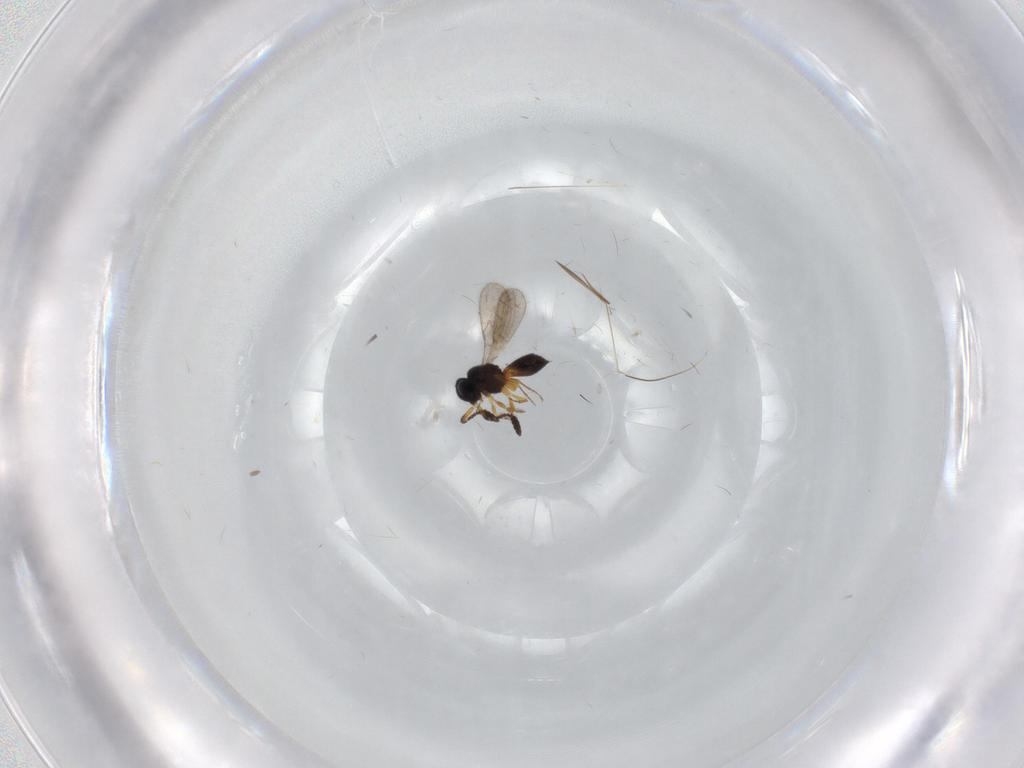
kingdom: Animalia
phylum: Arthropoda
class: Insecta
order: Hymenoptera
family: Scelionidae
